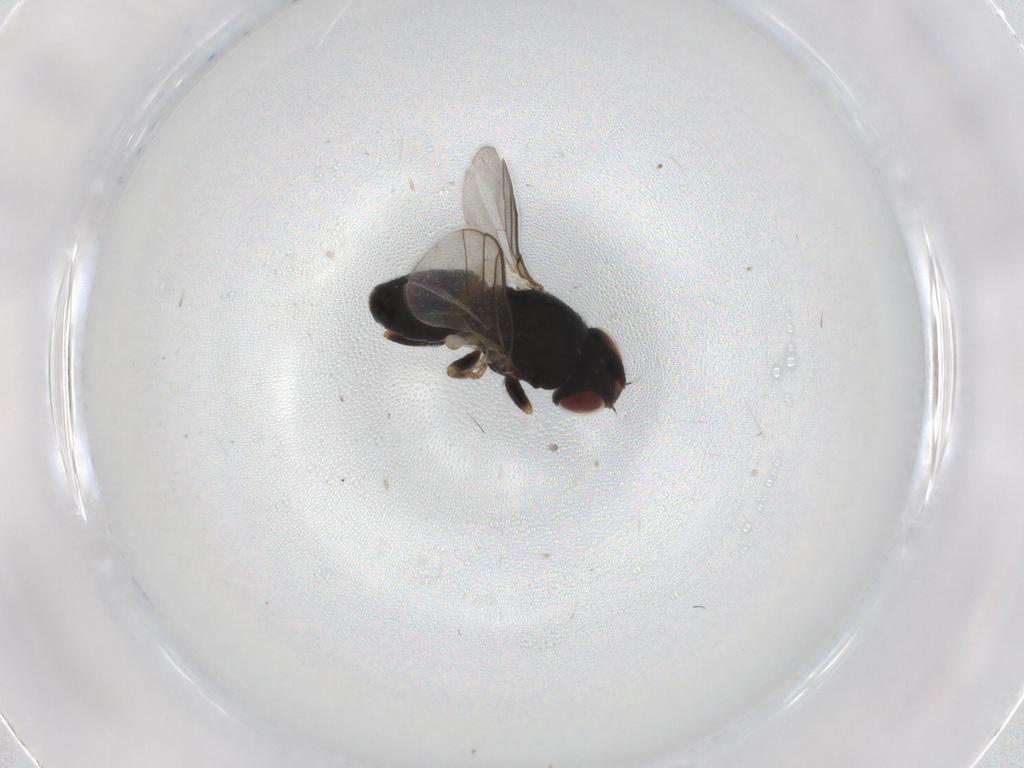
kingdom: Animalia
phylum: Arthropoda
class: Insecta
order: Diptera
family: Chloropidae
